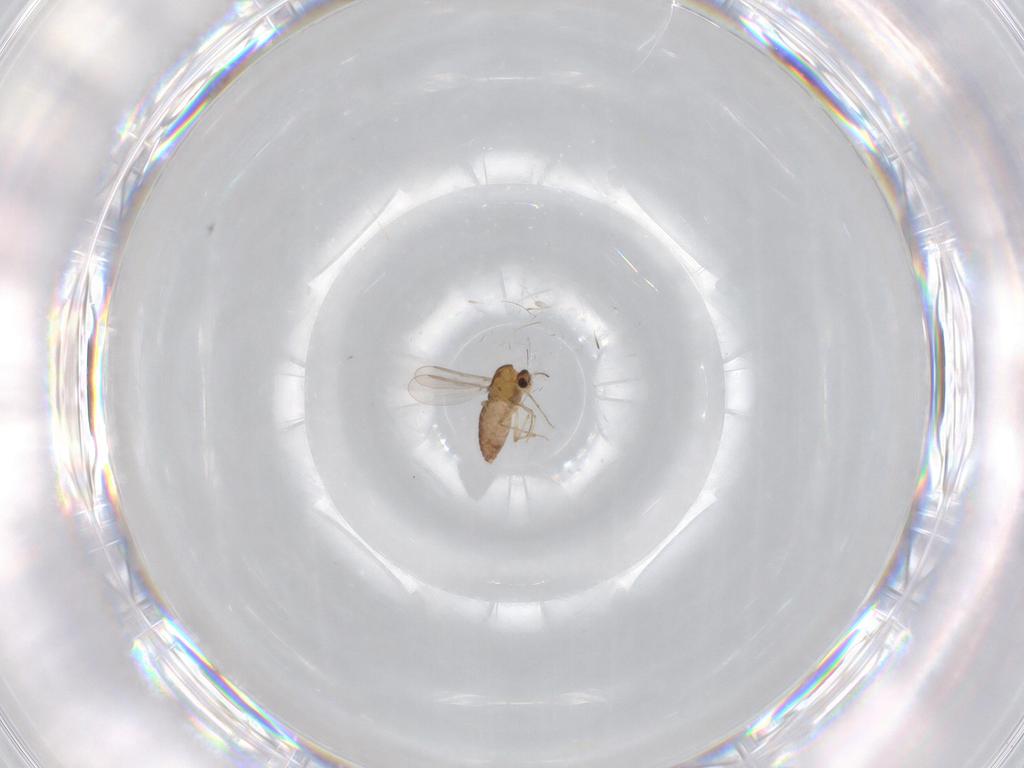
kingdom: Animalia
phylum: Arthropoda
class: Insecta
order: Diptera
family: Chironomidae
